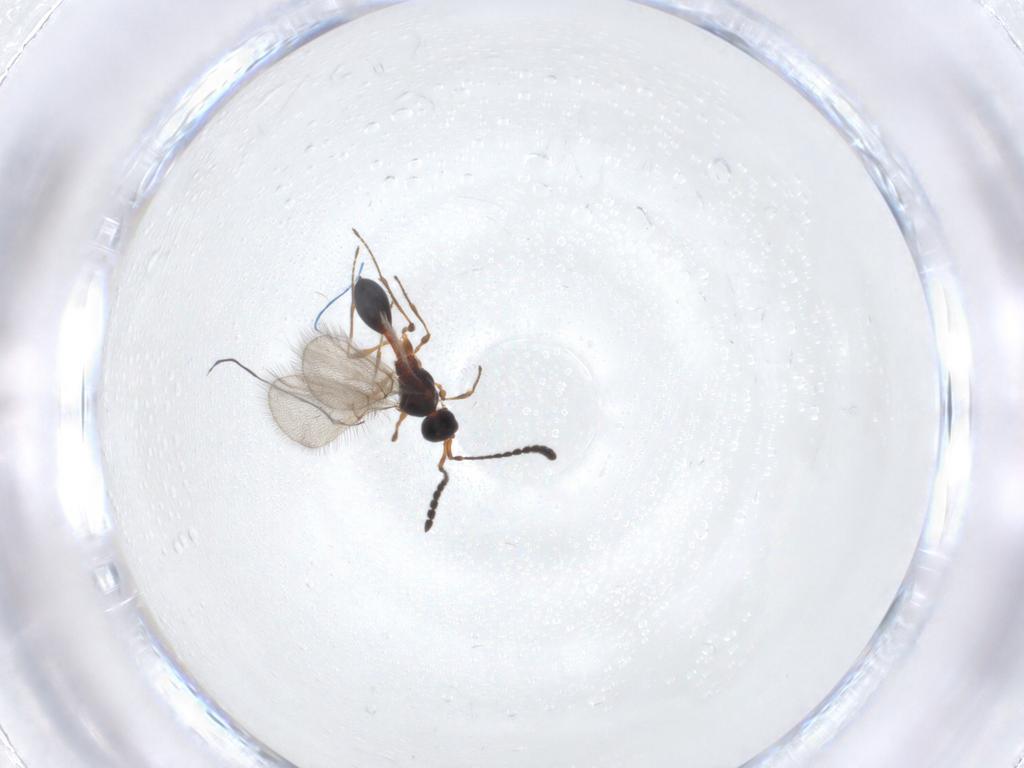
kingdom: Animalia
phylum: Arthropoda
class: Insecta
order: Hymenoptera
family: Diapriidae
